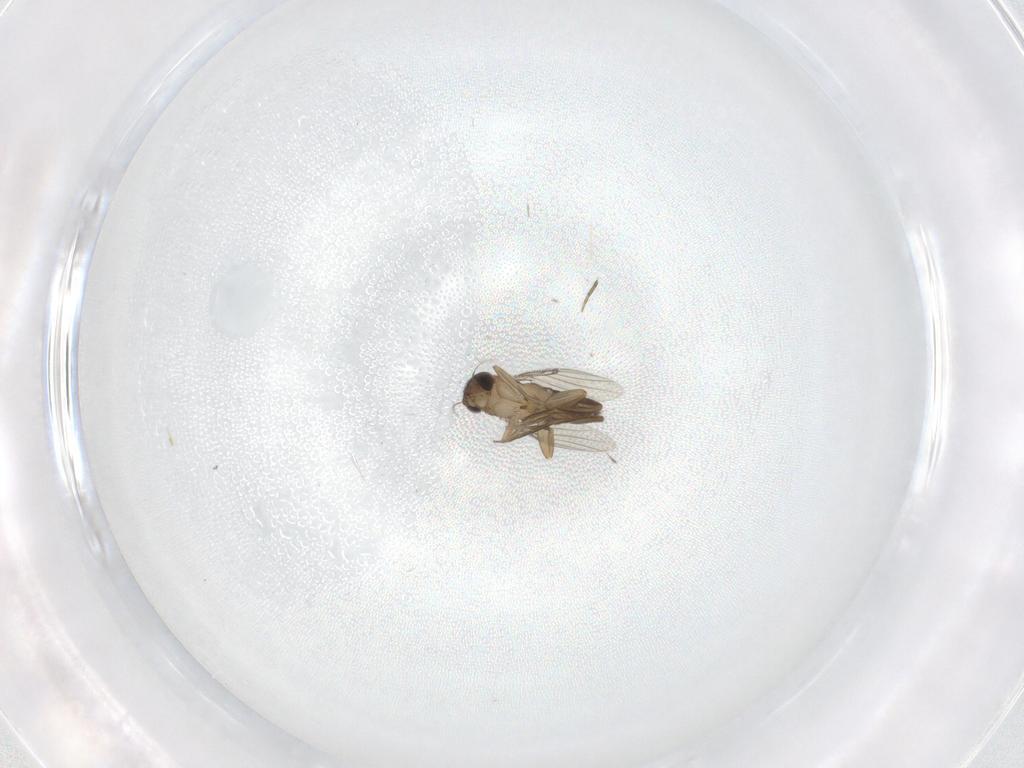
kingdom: Animalia
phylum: Arthropoda
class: Insecta
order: Diptera
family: Phoridae
